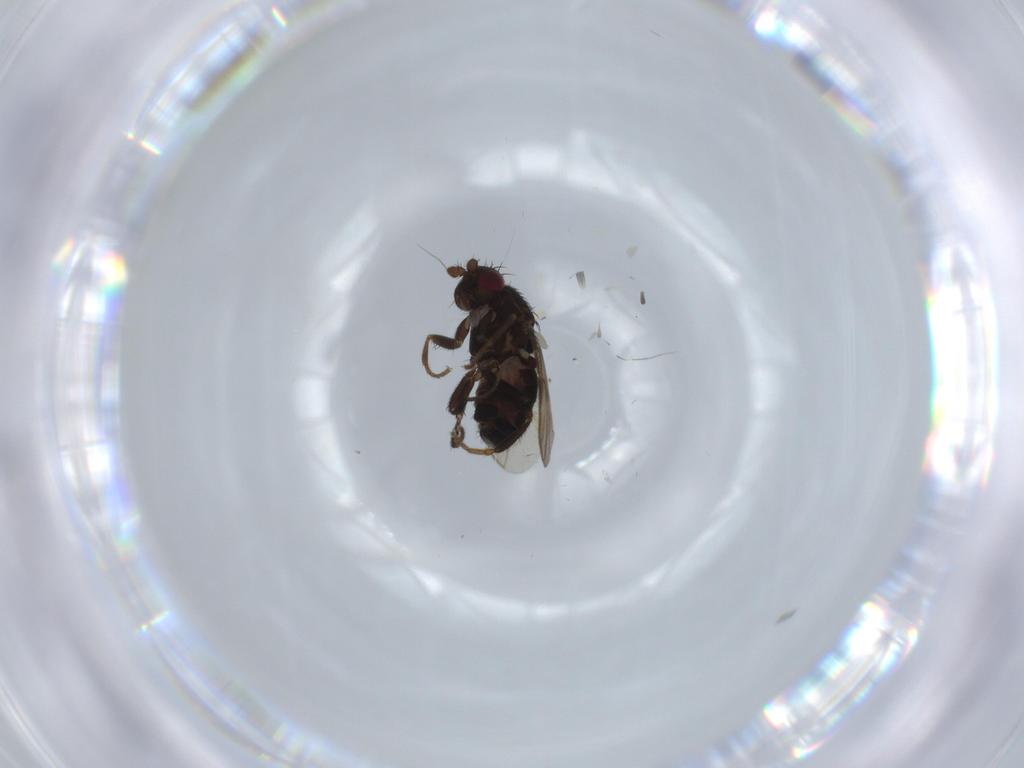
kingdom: Animalia
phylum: Arthropoda
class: Insecta
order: Diptera
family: Sphaeroceridae
